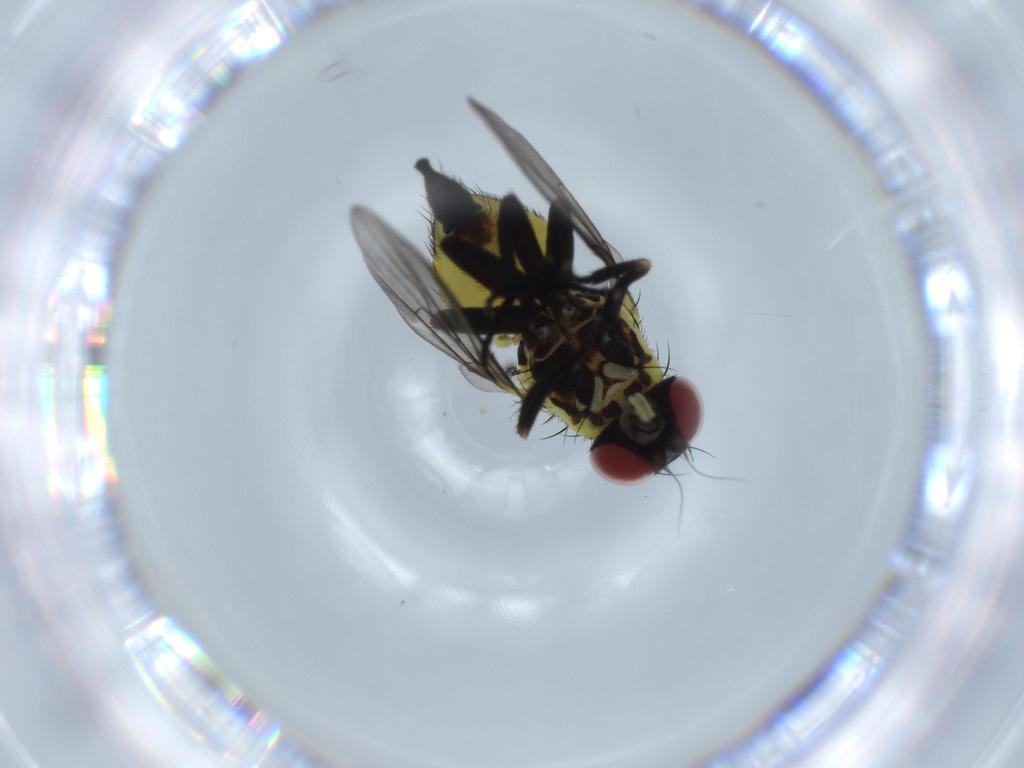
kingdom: Animalia
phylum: Arthropoda
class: Insecta
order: Diptera
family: Agromyzidae
